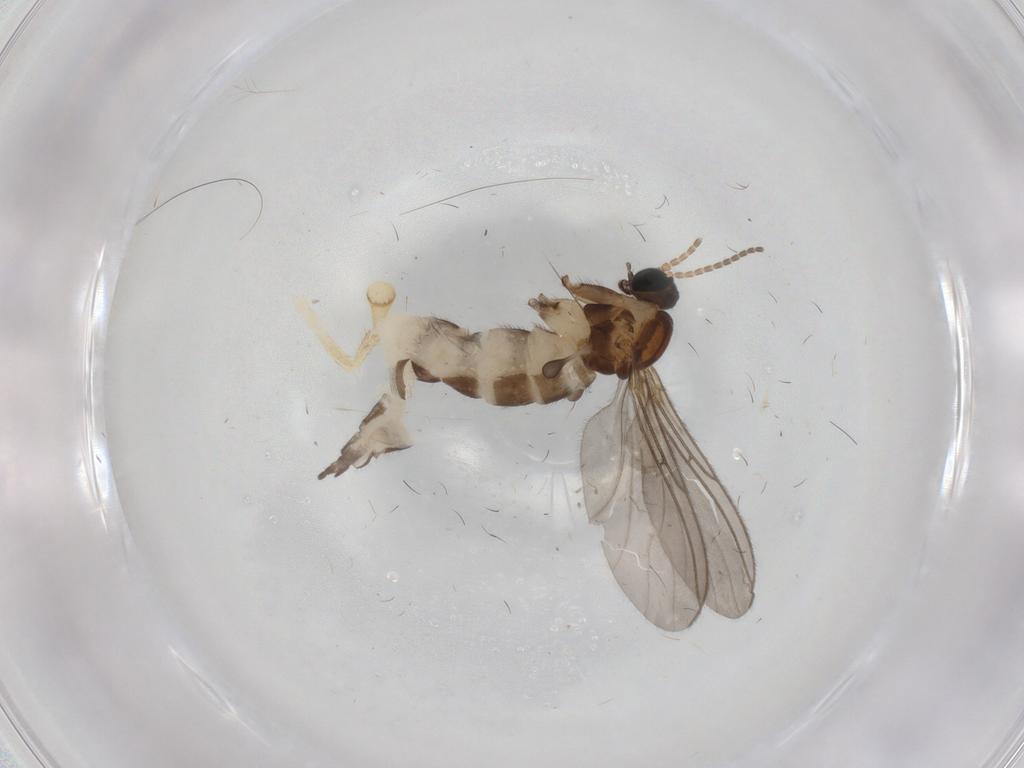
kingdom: Animalia
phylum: Arthropoda
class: Insecta
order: Diptera
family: Sciaridae
